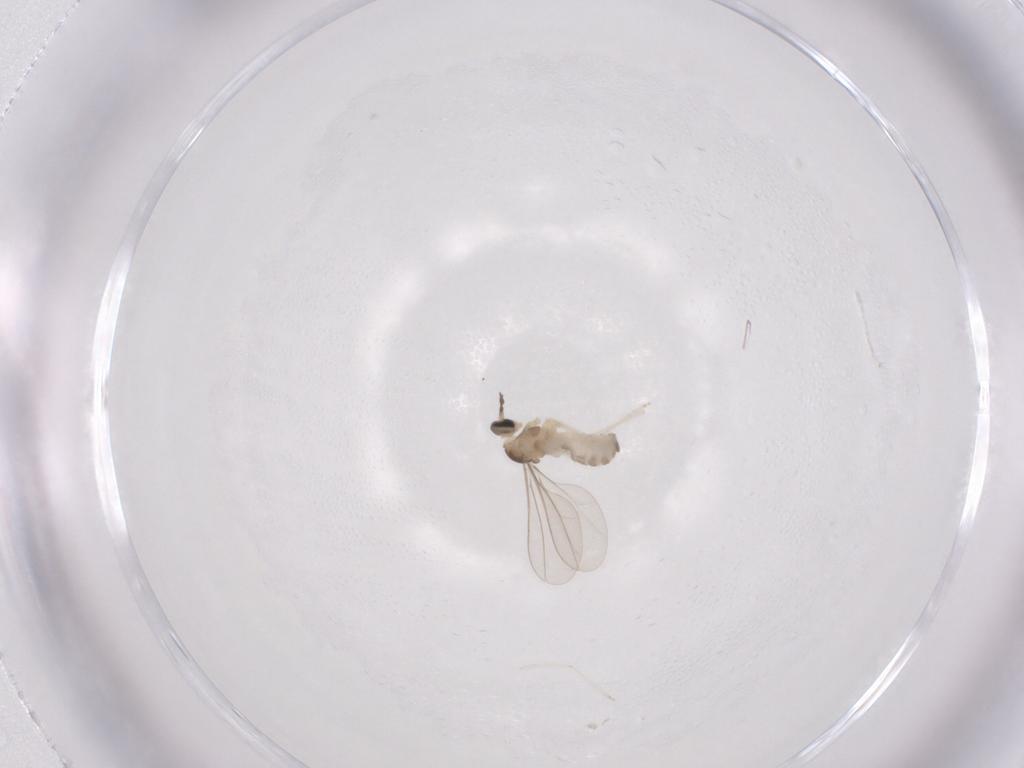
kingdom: Animalia
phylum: Arthropoda
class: Insecta
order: Diptera
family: Cecidomyiidae
